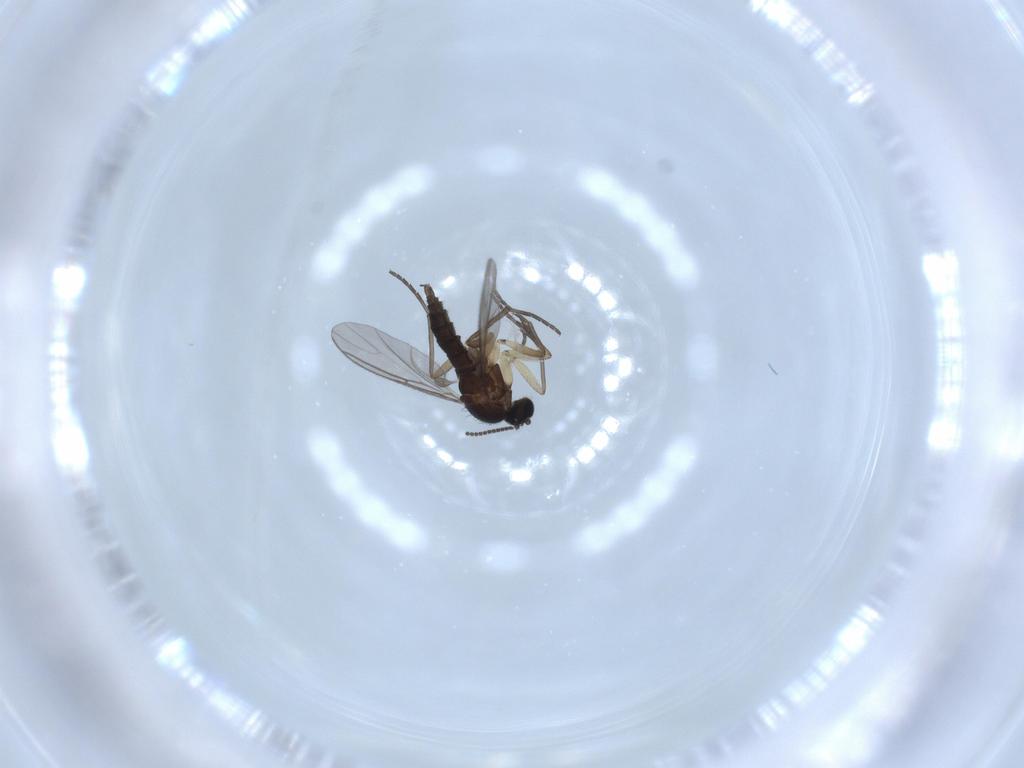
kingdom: Animalia
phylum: Arthropoda
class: Insecta
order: Diptera
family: Sciaridae
